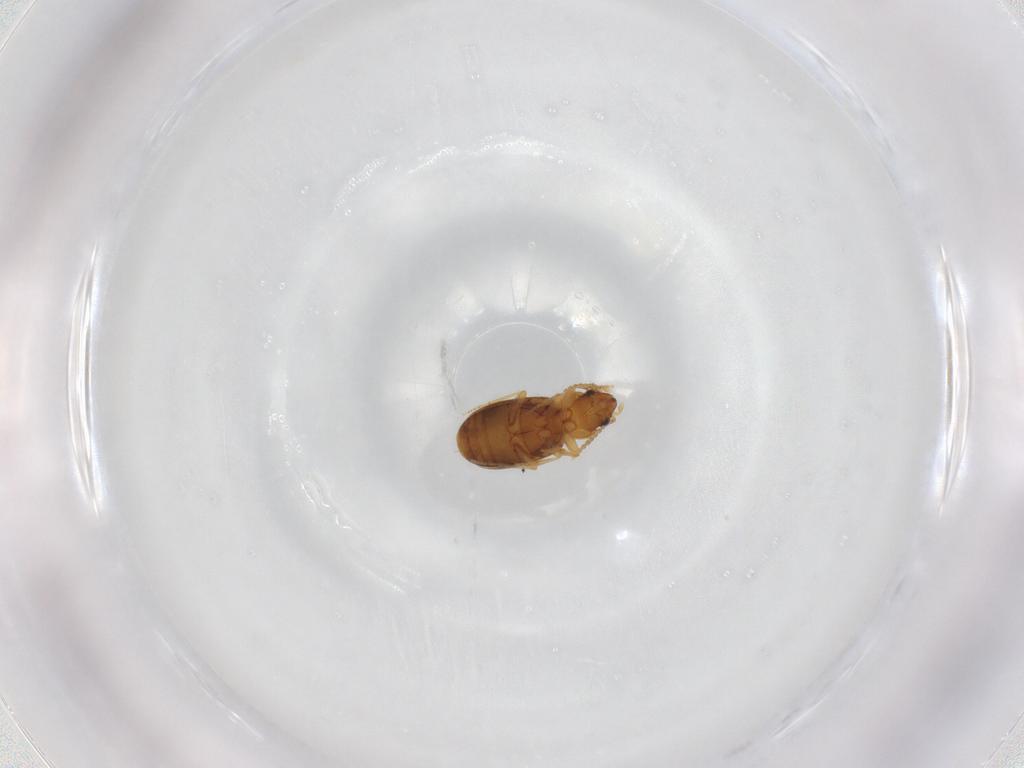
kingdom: Animalia
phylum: Arthropoda
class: Insecta
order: Coleoptera
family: Carabidae
